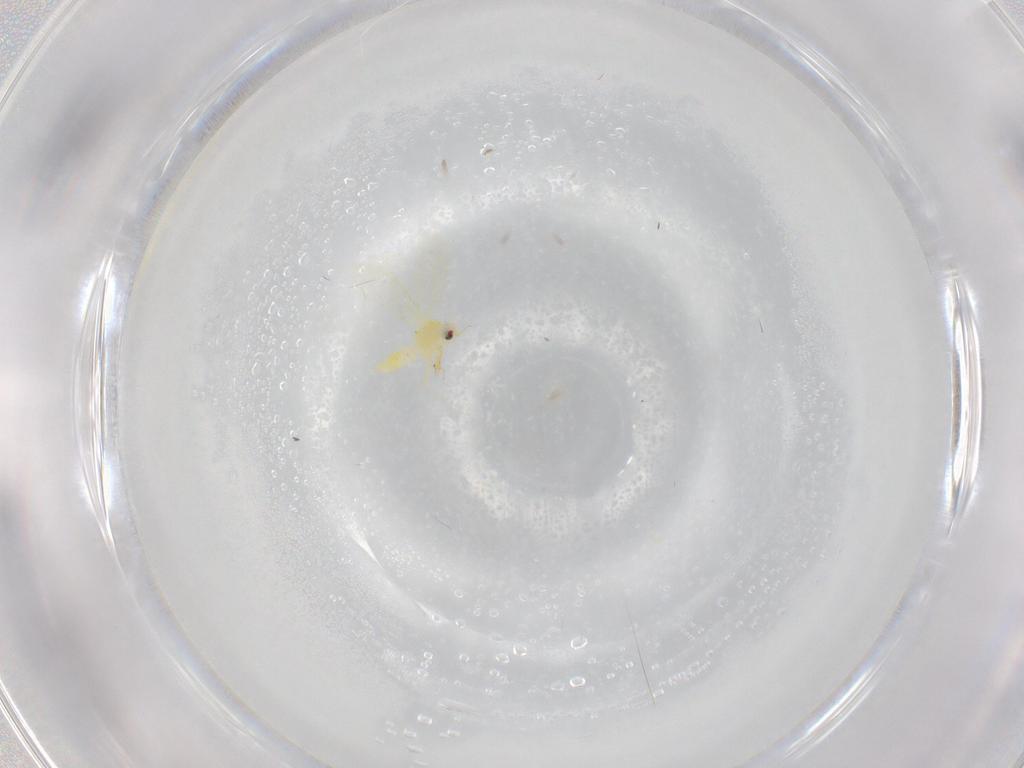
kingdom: Animalia
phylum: Arthropoda
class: Insecta
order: Hemiptera
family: Aleyrodidae
